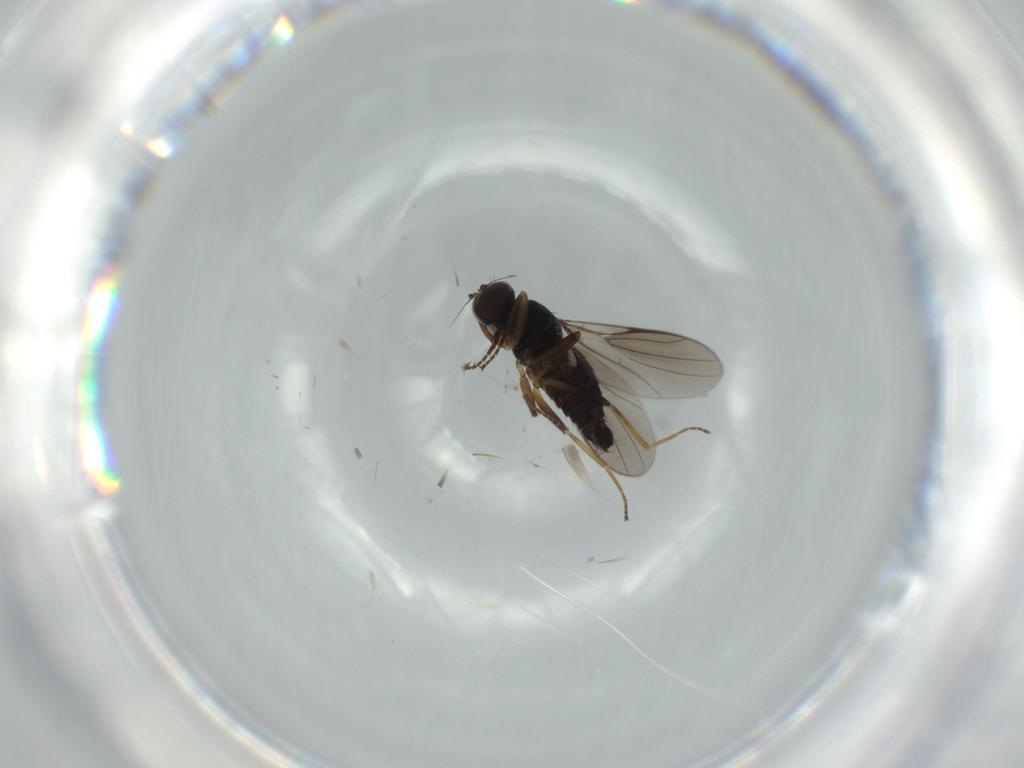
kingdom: Animalia
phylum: Arthropoda
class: Insecta
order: Diptera
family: Hybotidae
